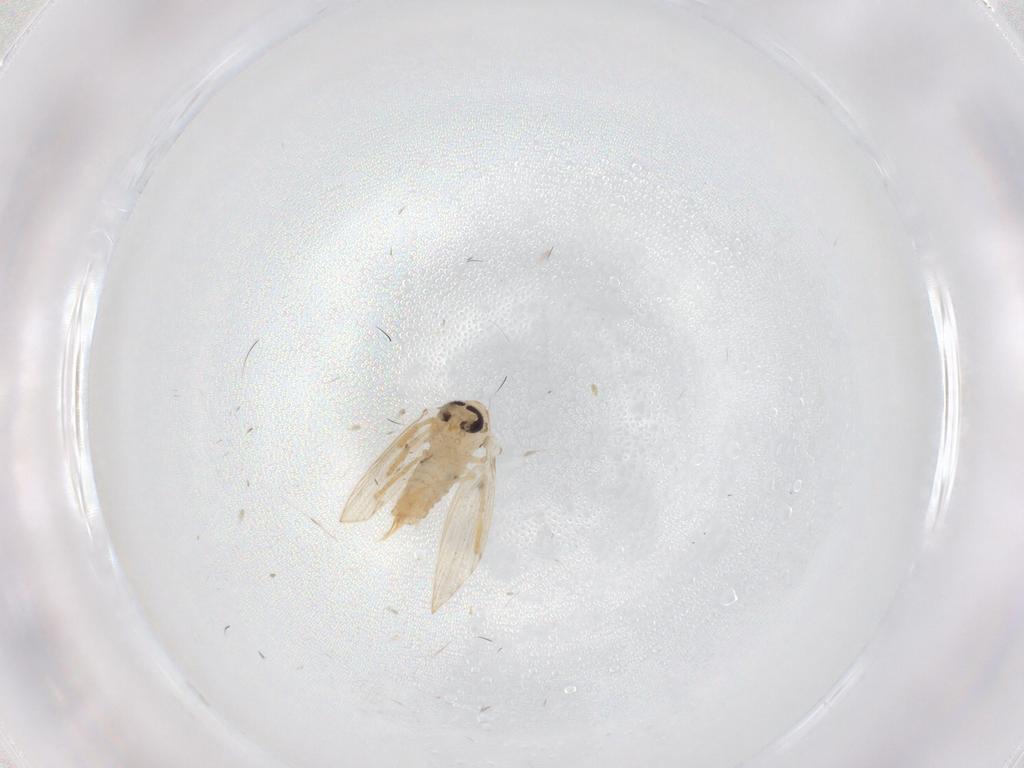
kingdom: Animalia
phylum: Arthropoda
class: Insecta
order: Diptera
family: Psychodidae
